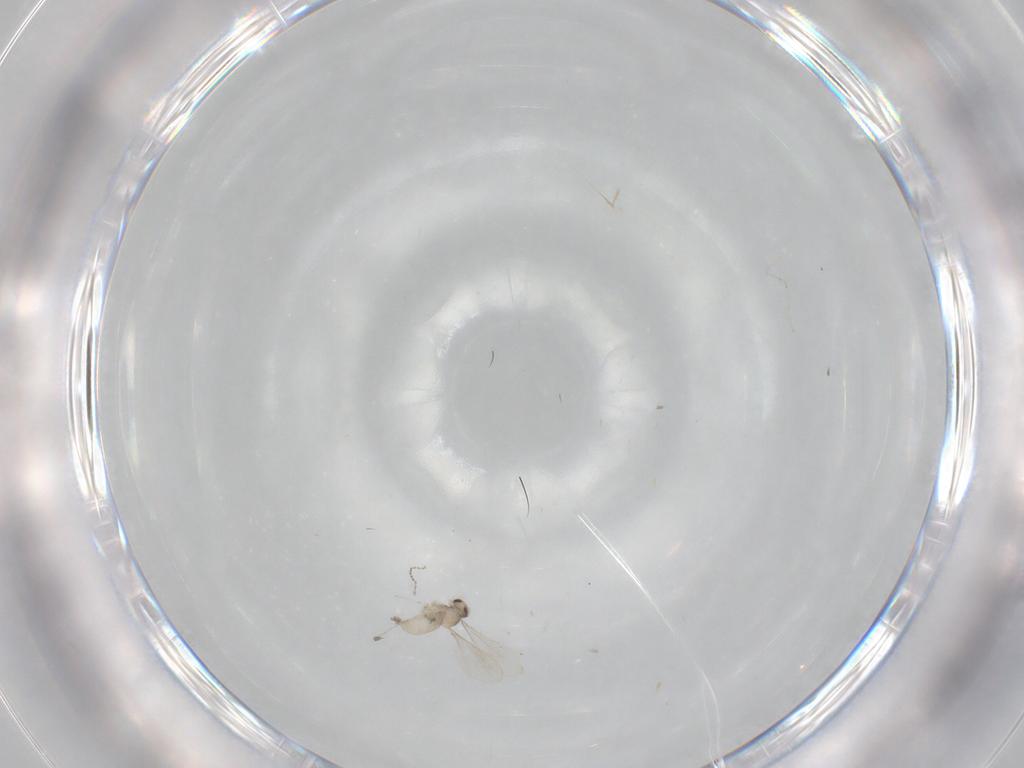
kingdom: Animalia
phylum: Arthropoda
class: Insecta
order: Diptera
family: Cecidomyiidae
